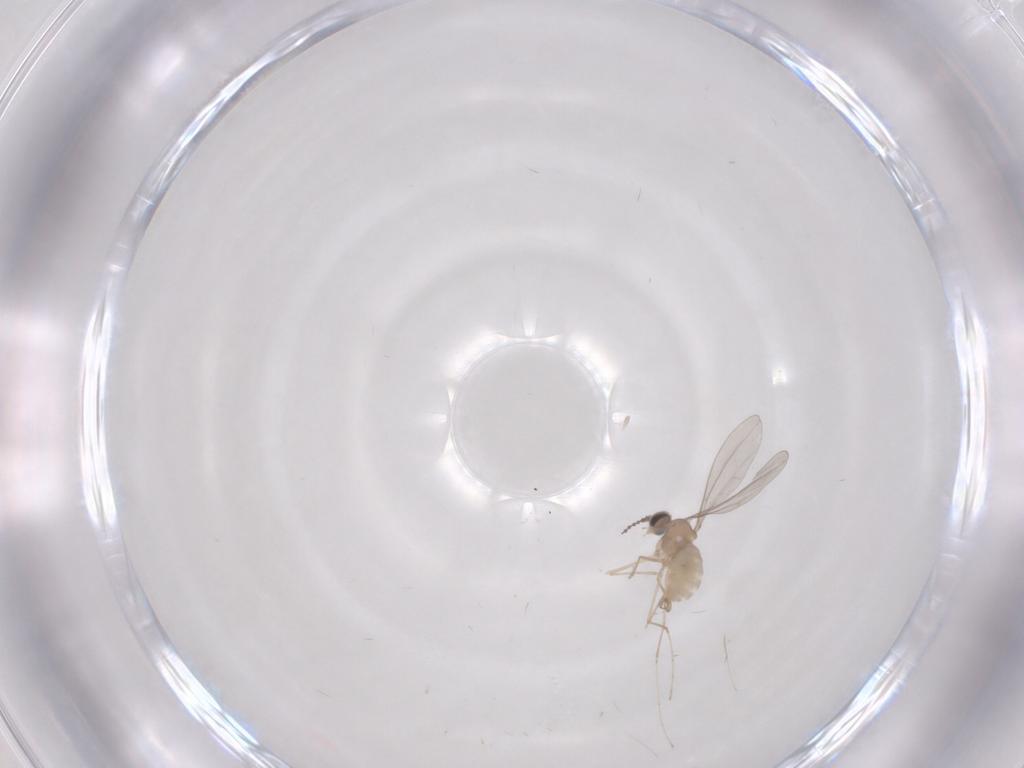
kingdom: Animalia
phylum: Arthropoda
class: Insecta
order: Diptera
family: Cecidomyiidae
